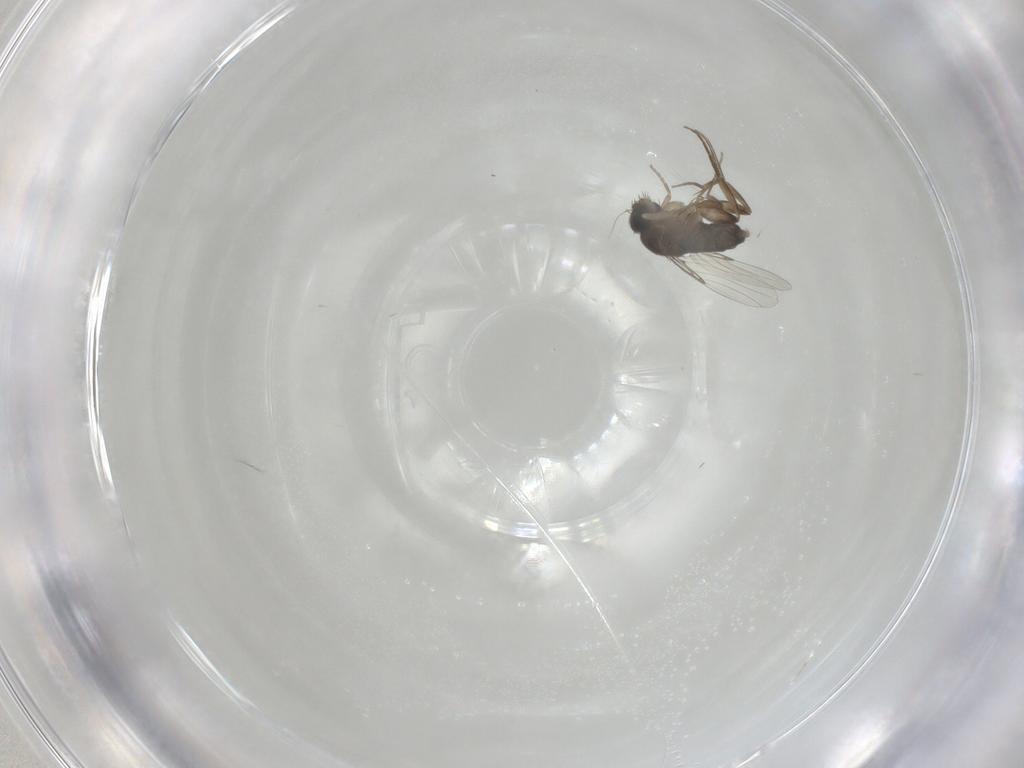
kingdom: Animalia
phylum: Arthropoda
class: Insecta
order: Diptera
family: Phoridae
